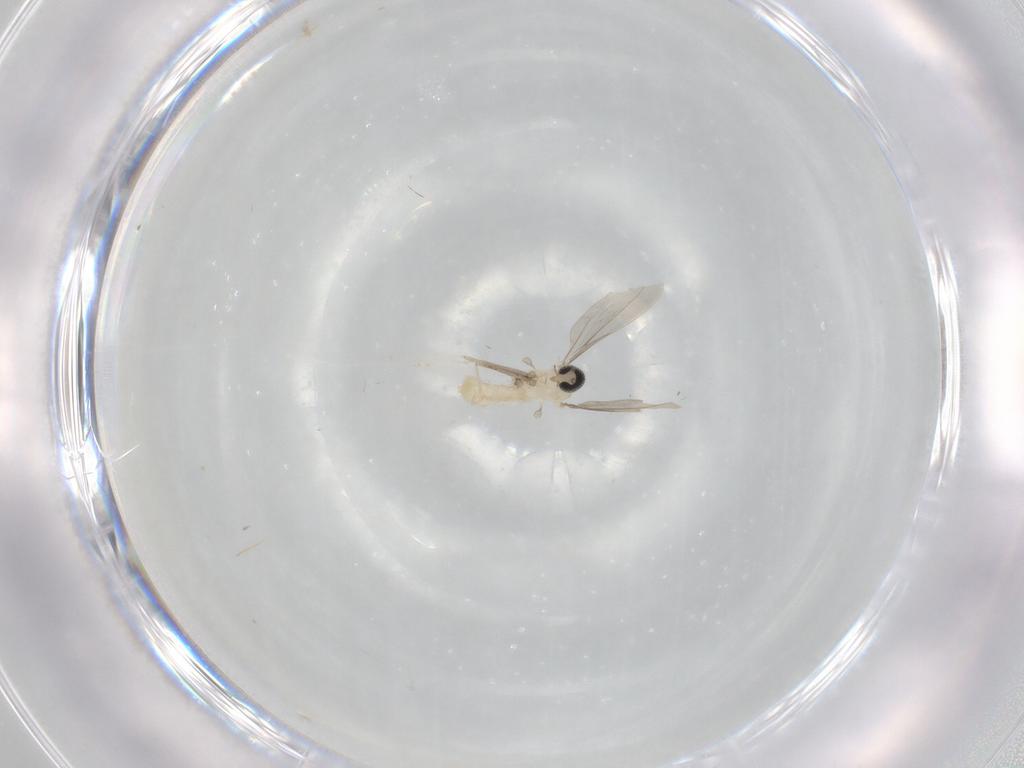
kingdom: Animalia
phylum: Arthropoda
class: Insecta
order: Diptera
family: Cecidomyiidae
